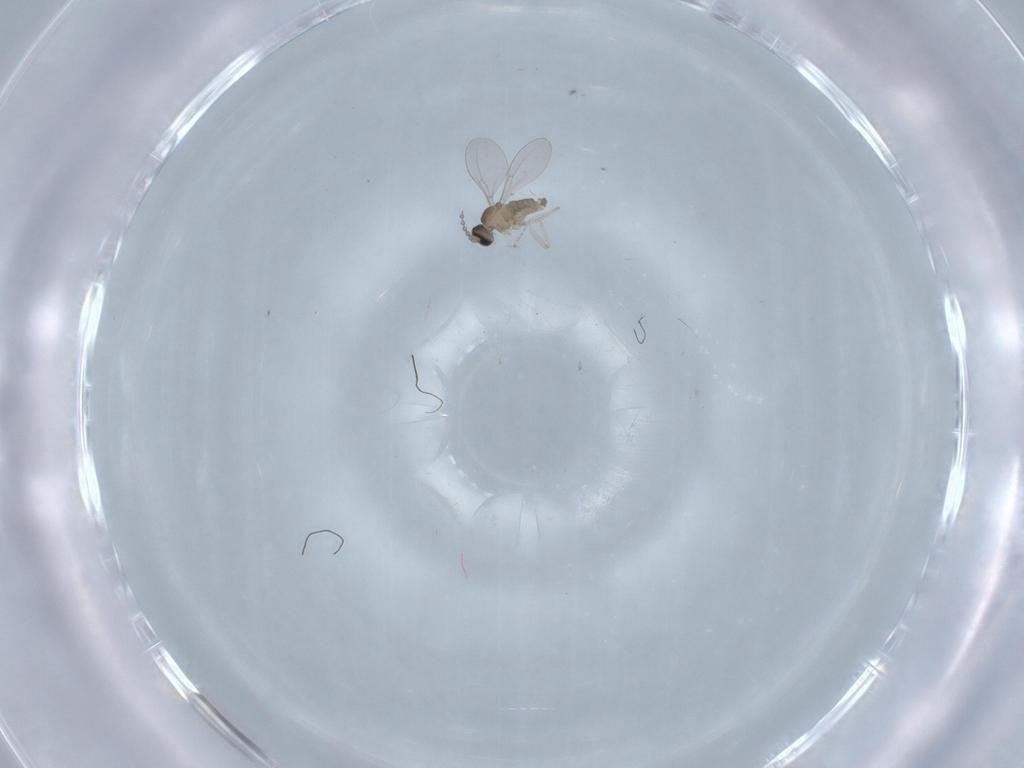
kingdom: Animalia
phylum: Arthropoda
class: Insecta
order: Diptera
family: Cecidomyiidae
